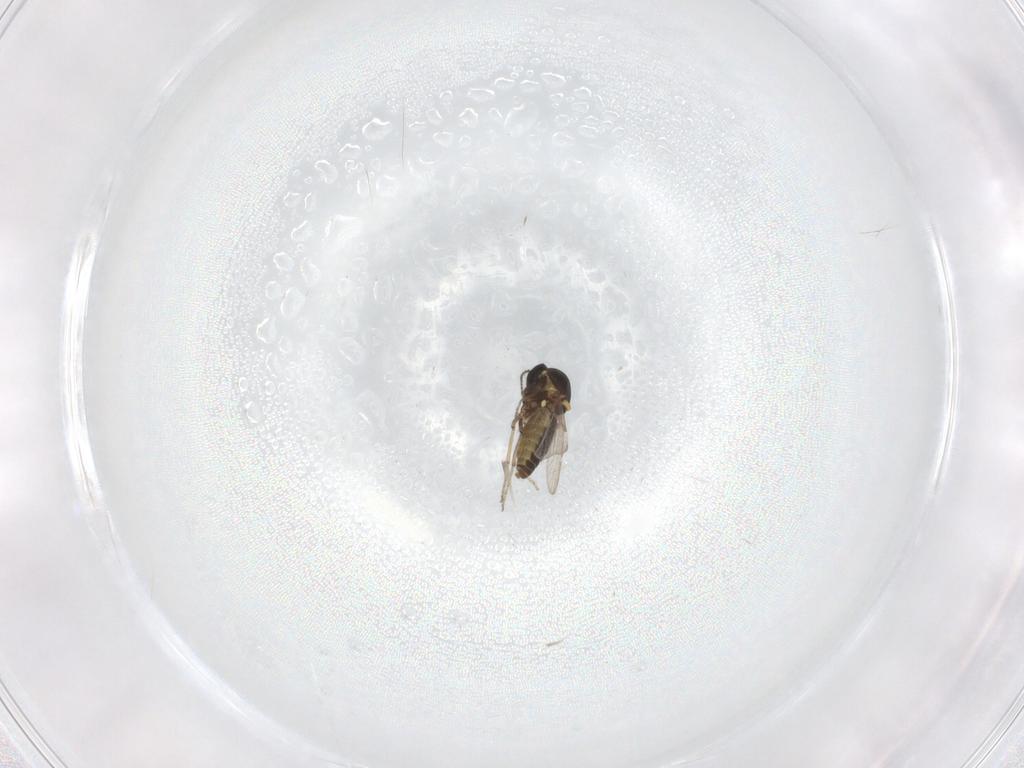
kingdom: Animalia
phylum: Arthropoda
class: Insecta
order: Diptera
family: Ceratopogonidae
